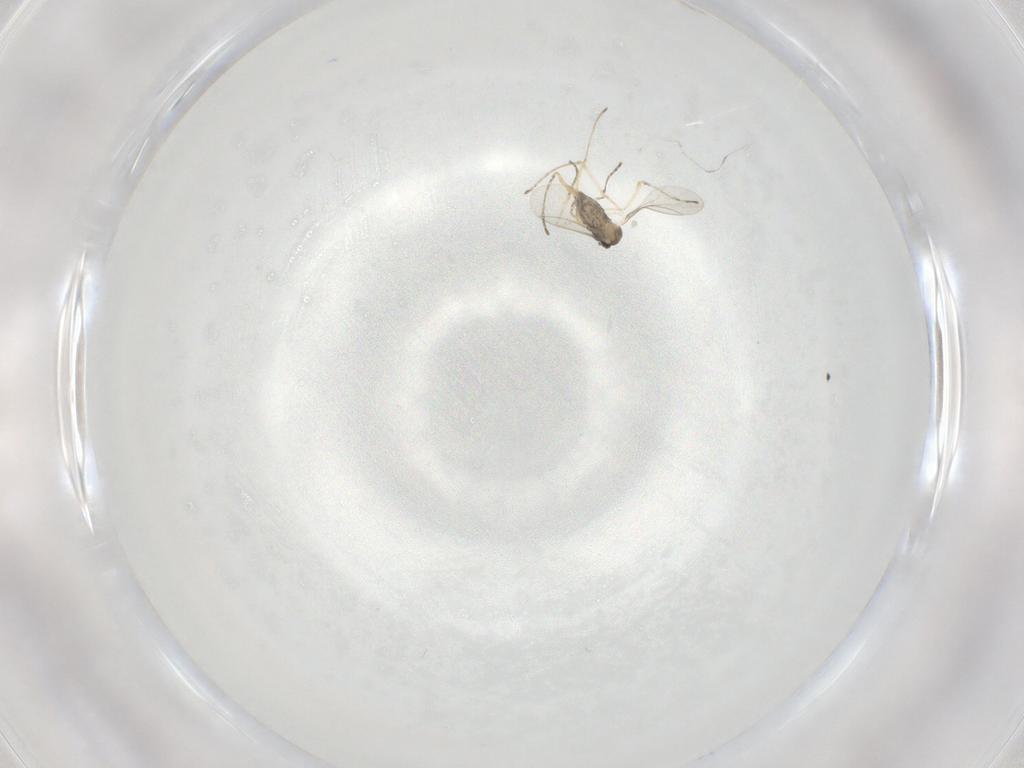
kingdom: Animalia
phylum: Arthropoda
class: Insecta
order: Diptera
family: Cecidomyiidae
